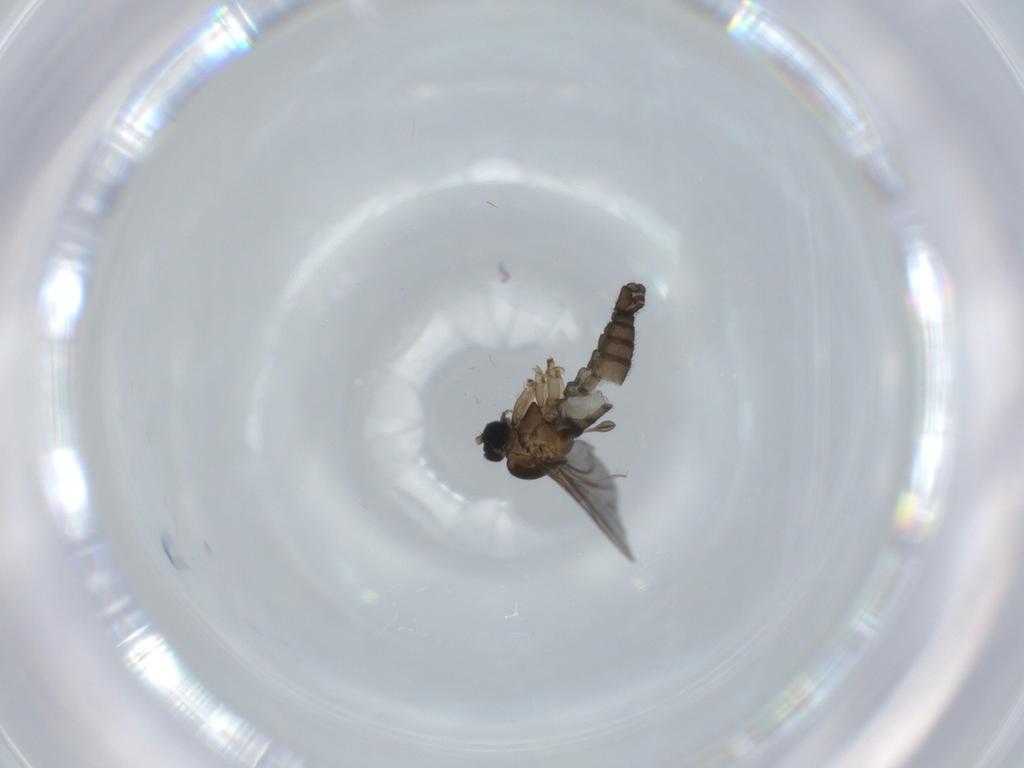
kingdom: Animalia
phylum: Arthropoda
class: Insecta
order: Diptera
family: Sciaridae
